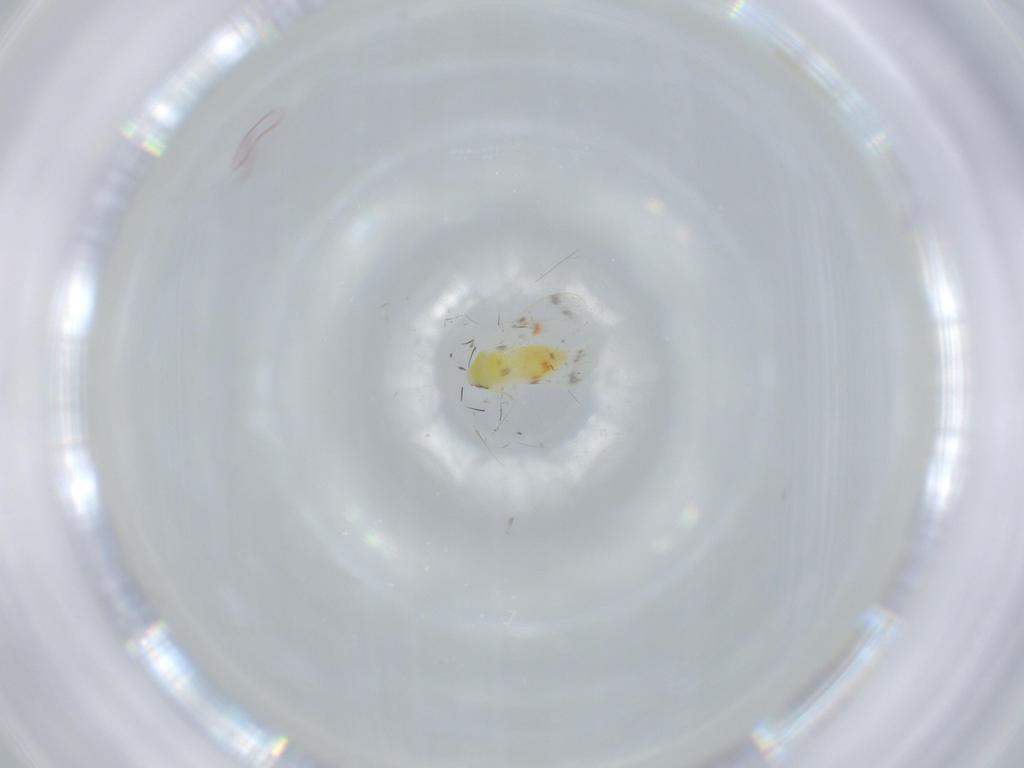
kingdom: Animalia
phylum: Arthropoda
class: Insecta
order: Hemiptera
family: Aleyrodidae
